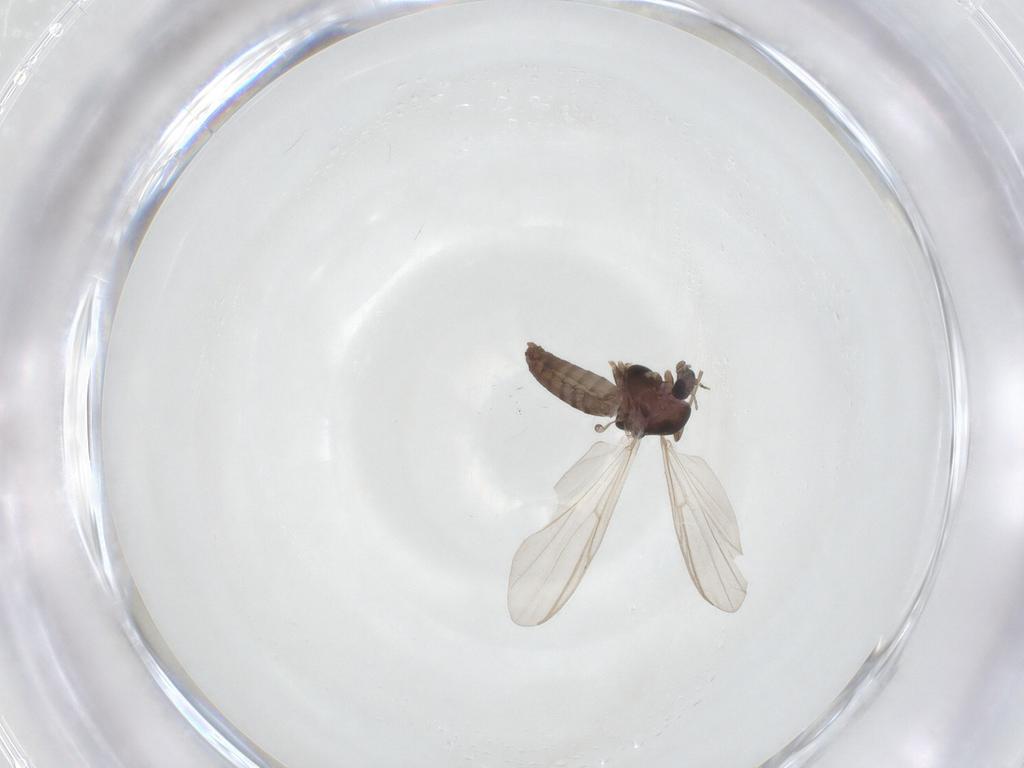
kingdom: Animalia
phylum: Arthropoda
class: Insecta
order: Diptera
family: Chironomidae
